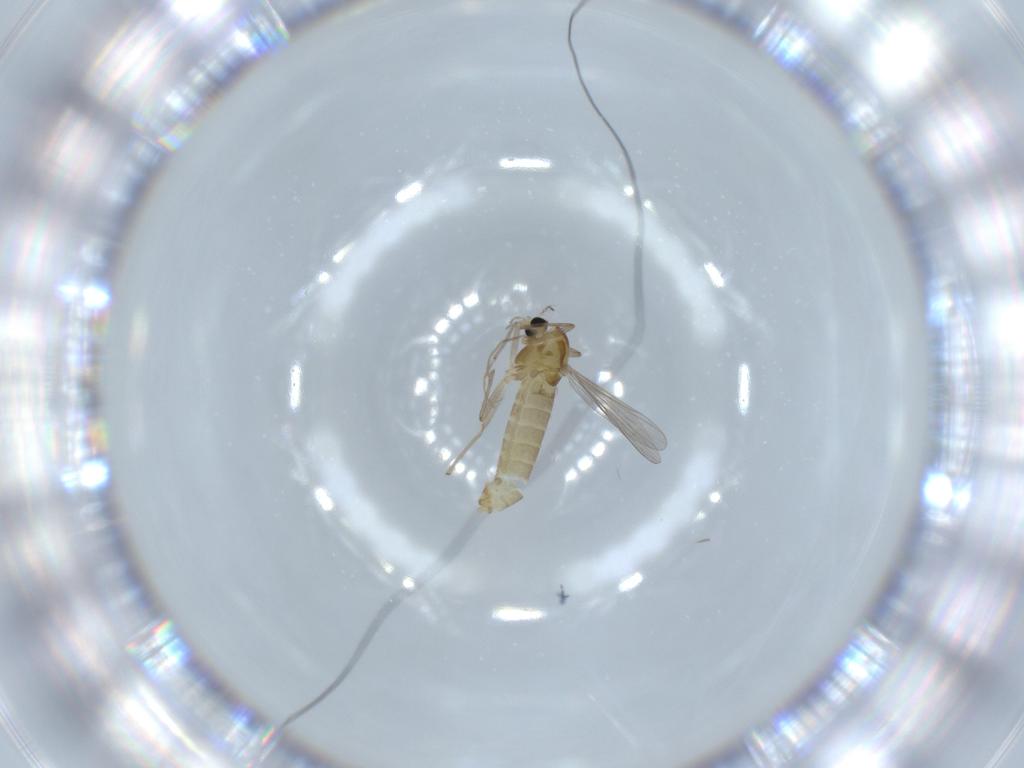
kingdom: Animalia
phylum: Arthropoda
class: Insecta
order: Diptera
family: Chironomidae
